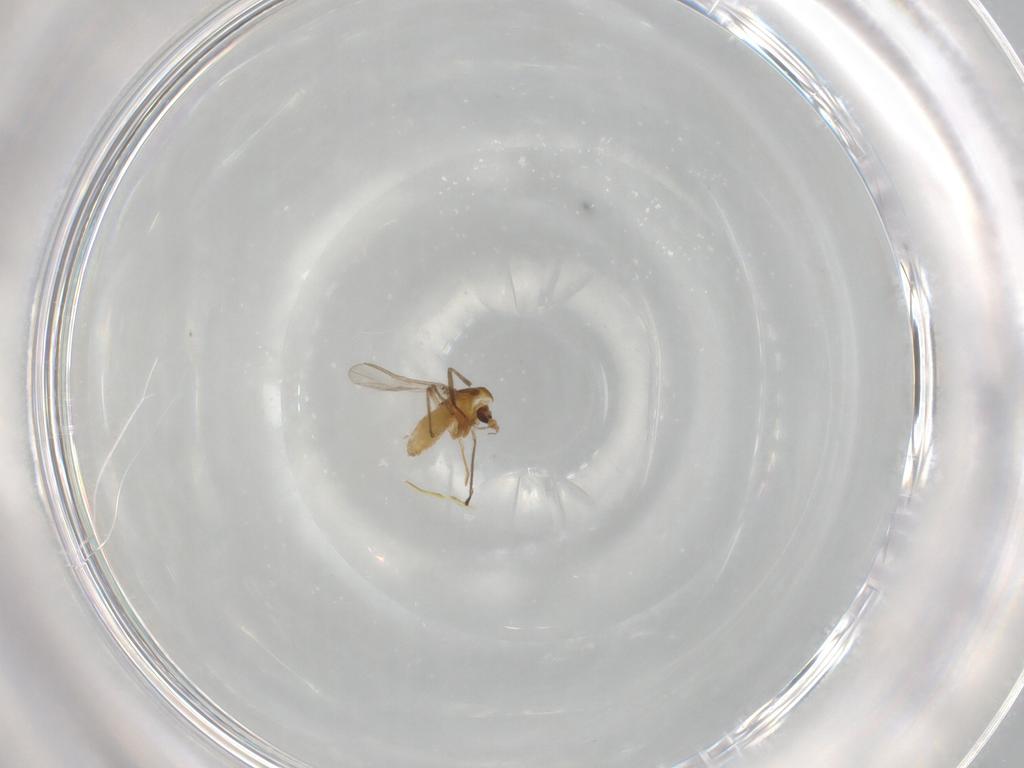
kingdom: Animalia
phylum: Arthropoda
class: Insecta
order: Diptera
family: Chironomidae
